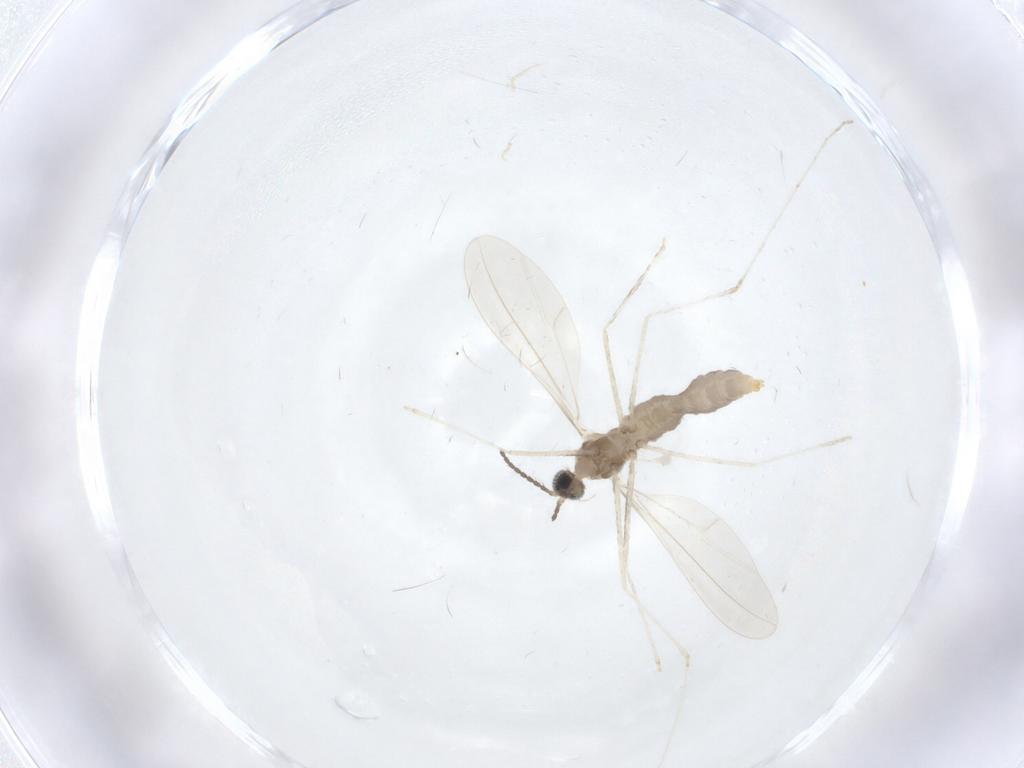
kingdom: Animalia
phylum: Arthropoda
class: Insecta
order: Diptera
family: Cecidomyiidae
